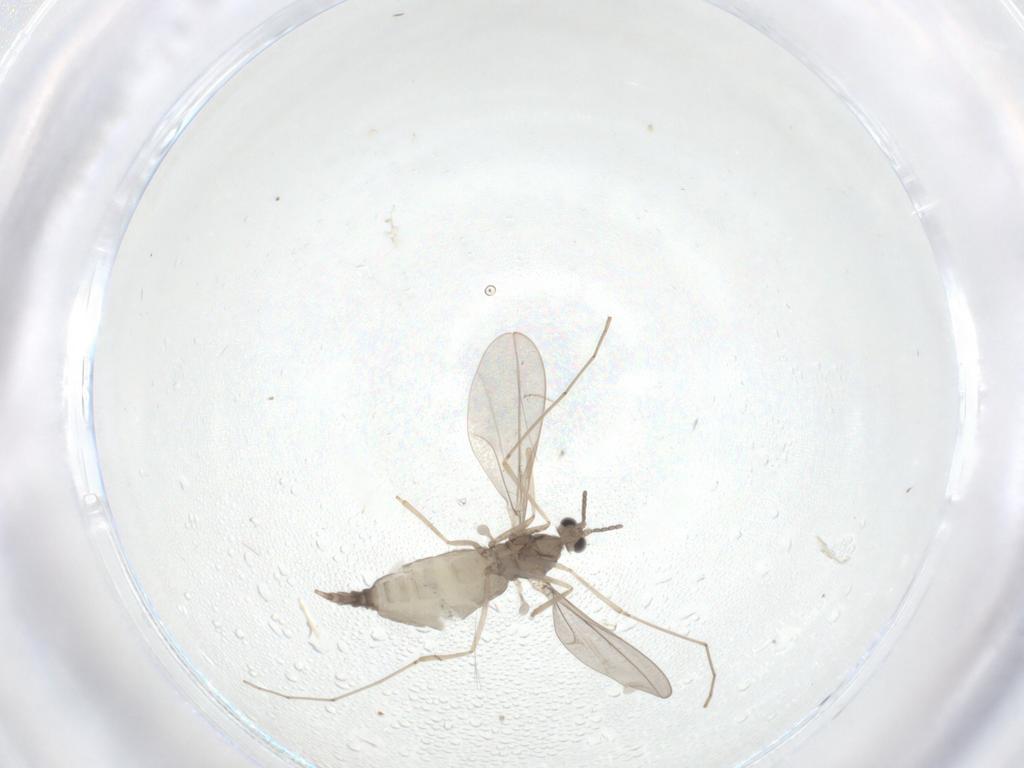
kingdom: Animalia
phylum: Arthropoda
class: Insecta
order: Diptera
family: Cecidomyiidae
